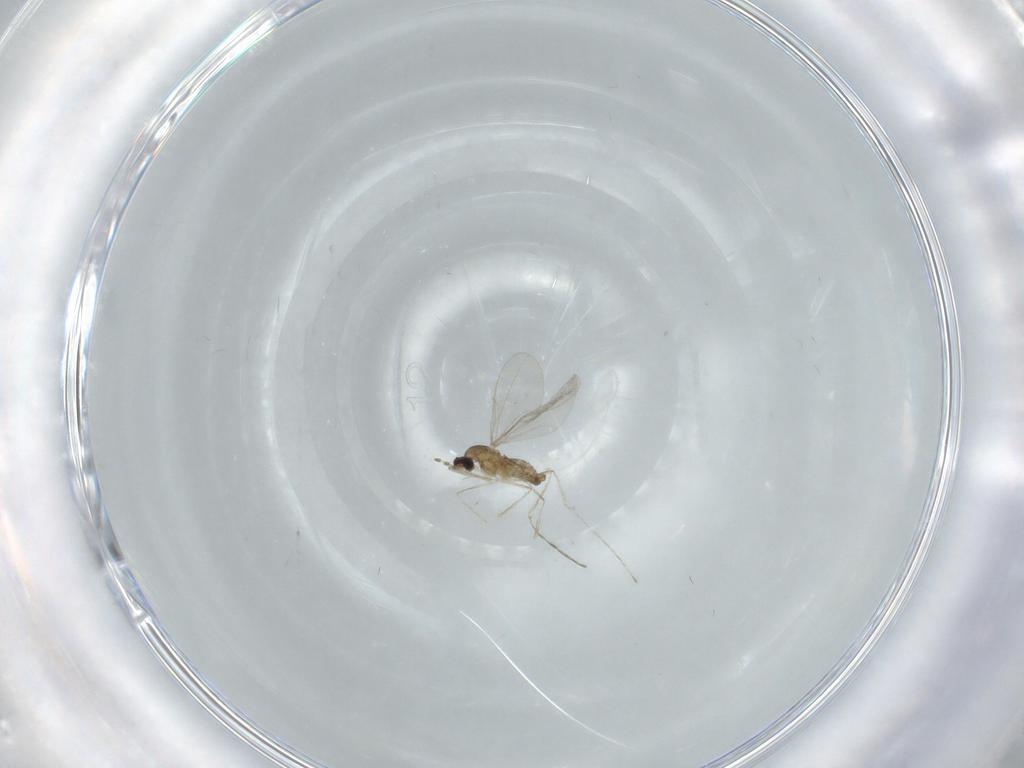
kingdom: Animalia
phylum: Arthropoda
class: Insecta
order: Diptera
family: Cecidomyiidae
